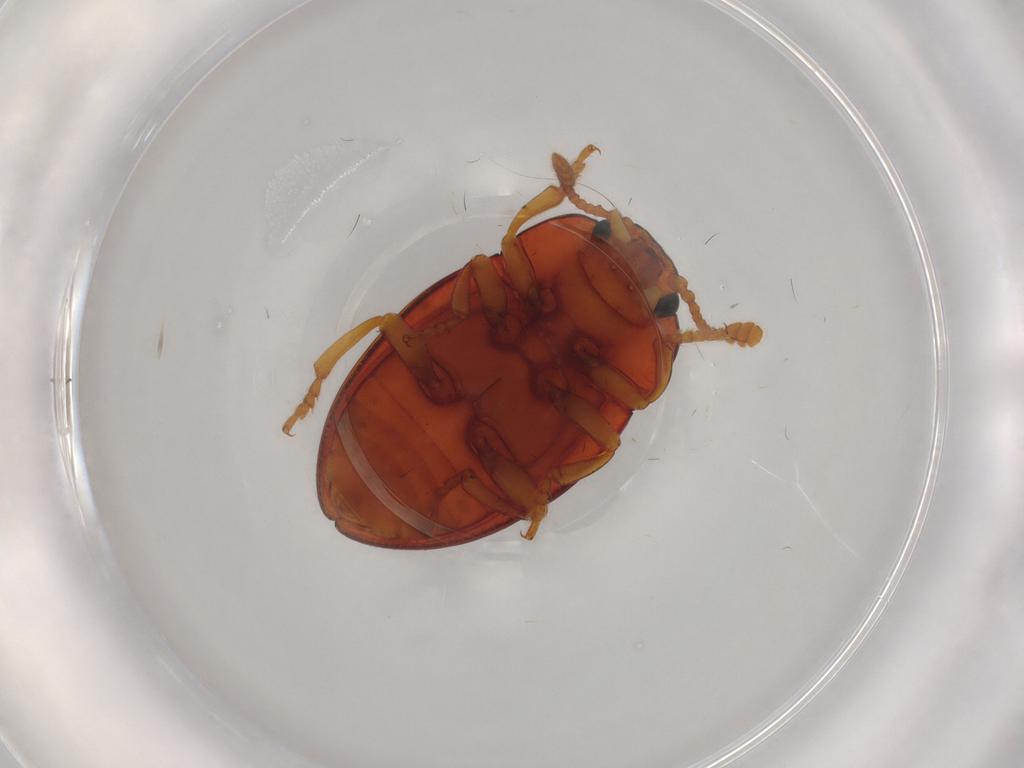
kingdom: Animalia
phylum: Arthropoda
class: Insecta
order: Coleoptera
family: Erotylidae
